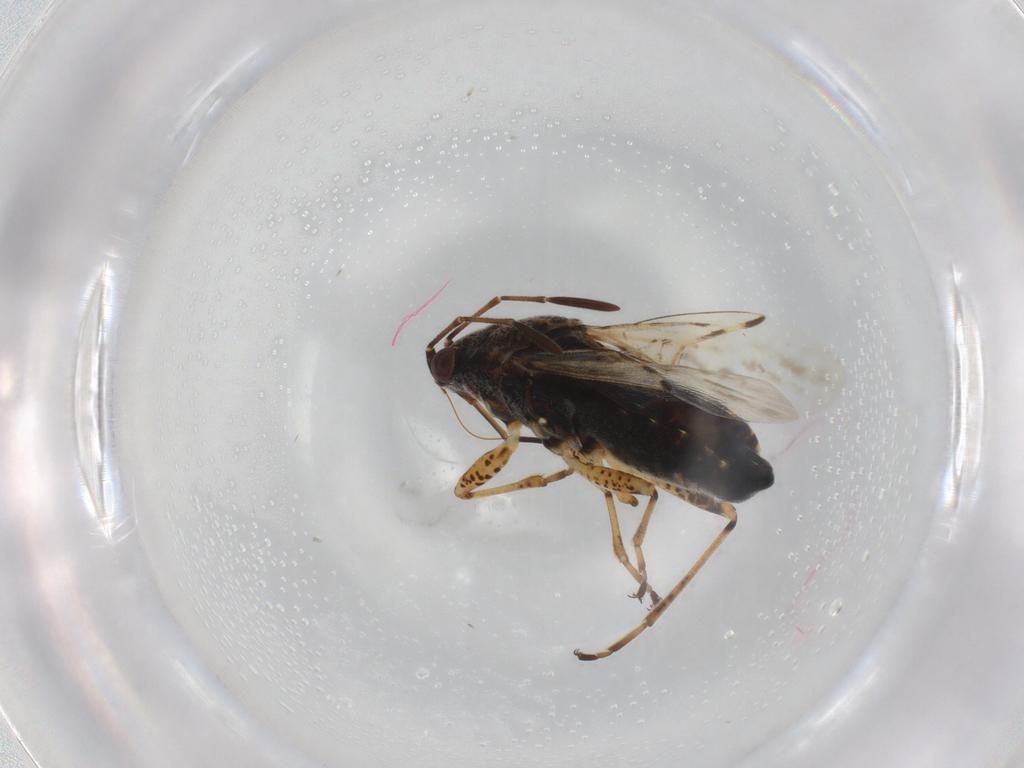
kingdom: Animalia
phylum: Arthropoda
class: Insecta
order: Hemiptera
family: Lygaeidae
